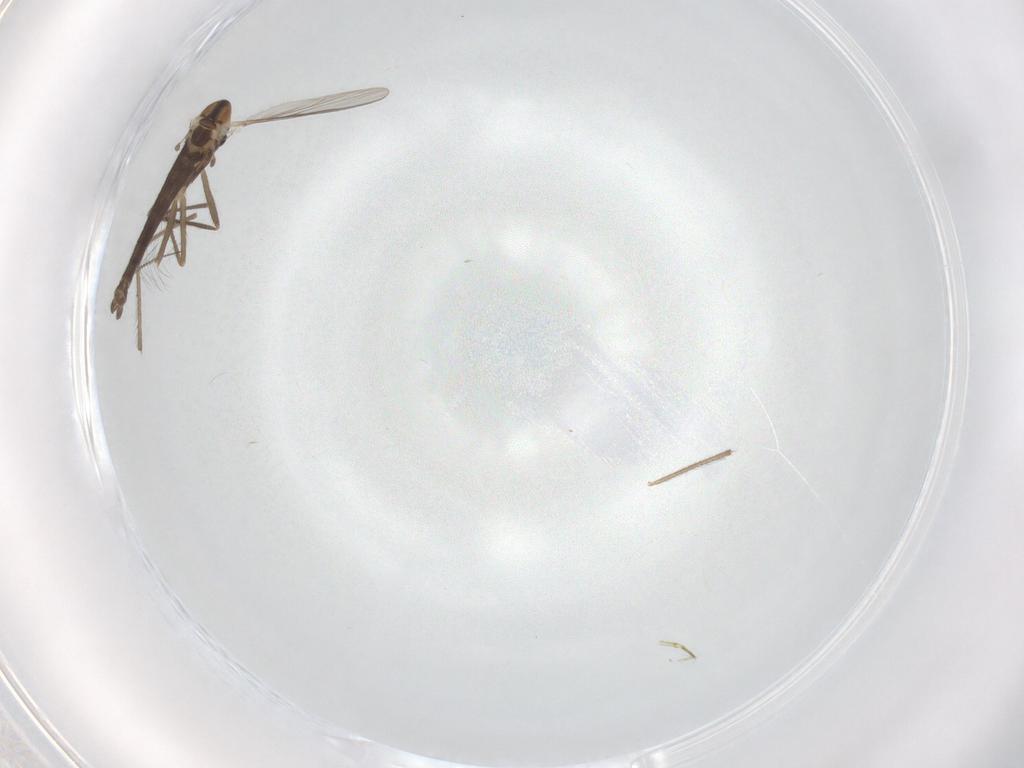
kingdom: Animalia
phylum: Arthropoda
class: Insecta
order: Diptera
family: Chironomidae
